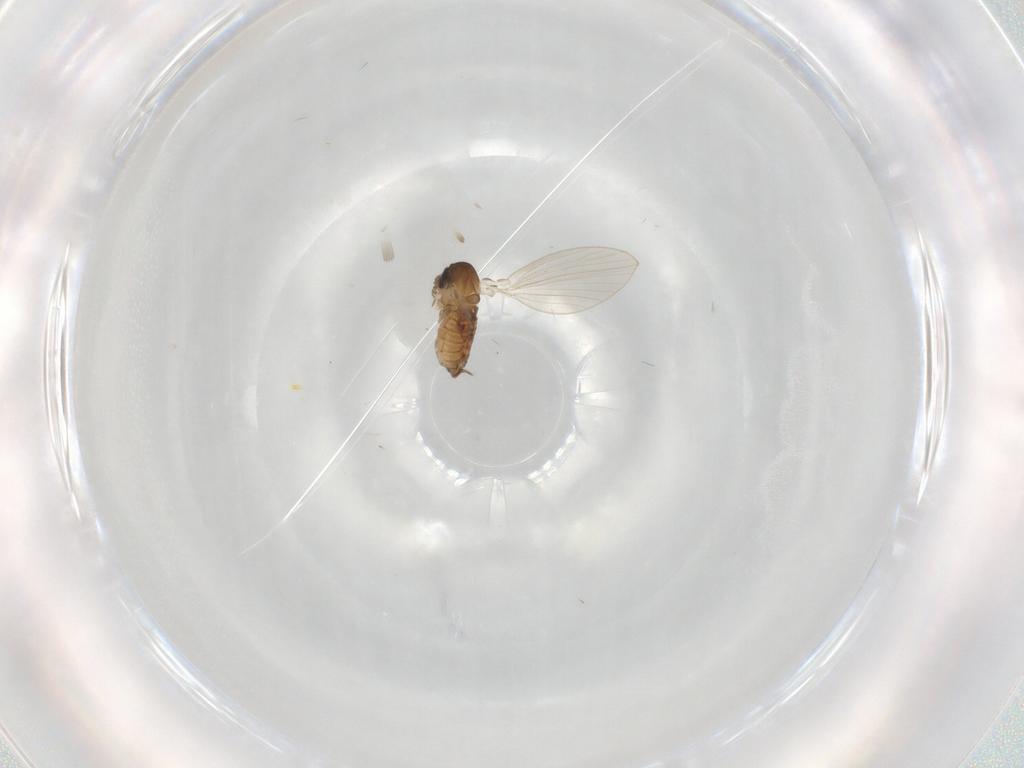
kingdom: Animalia
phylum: Arthropoda
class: Insecta
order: Diptera
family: Psychodidae
